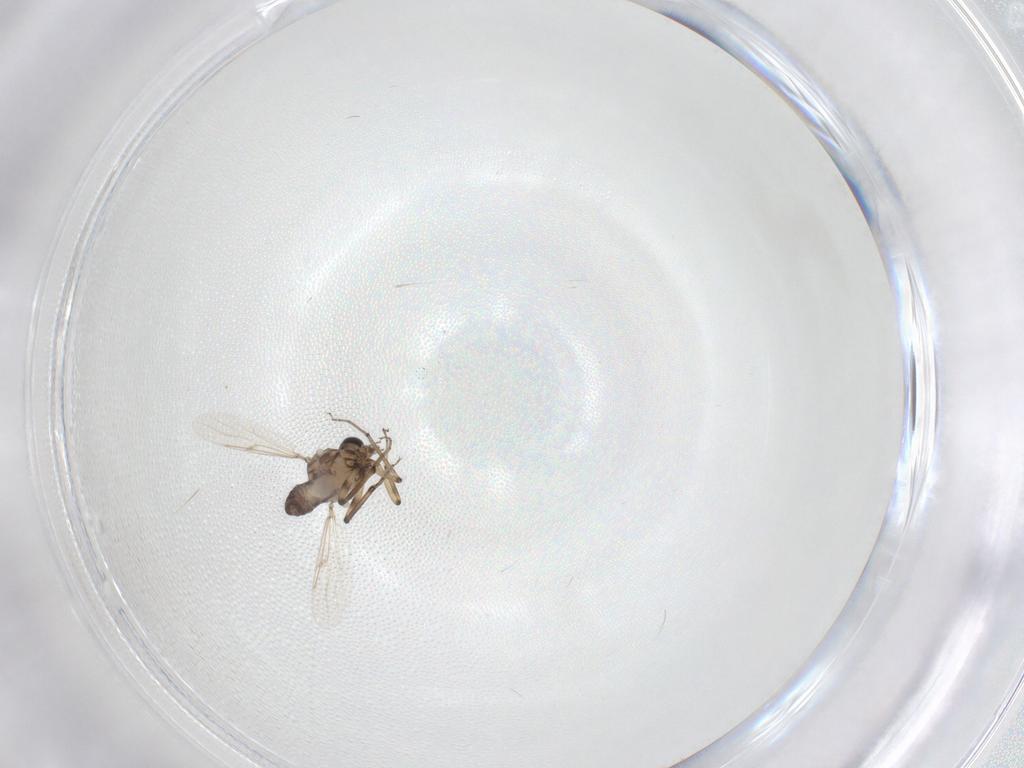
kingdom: Animalia
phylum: Arthropoda
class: Insecta
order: Diptera
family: Ceratopogonidae
